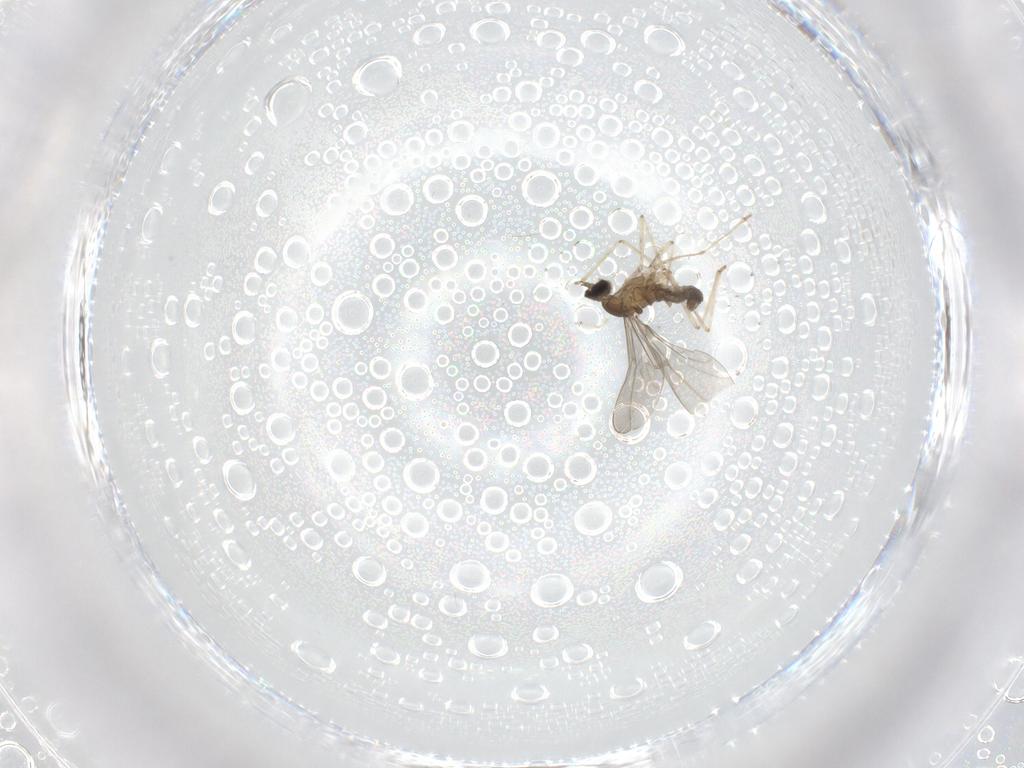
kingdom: Animalia
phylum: Arthropoda
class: Insecta
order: Diptera
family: Cecidomyiidae
